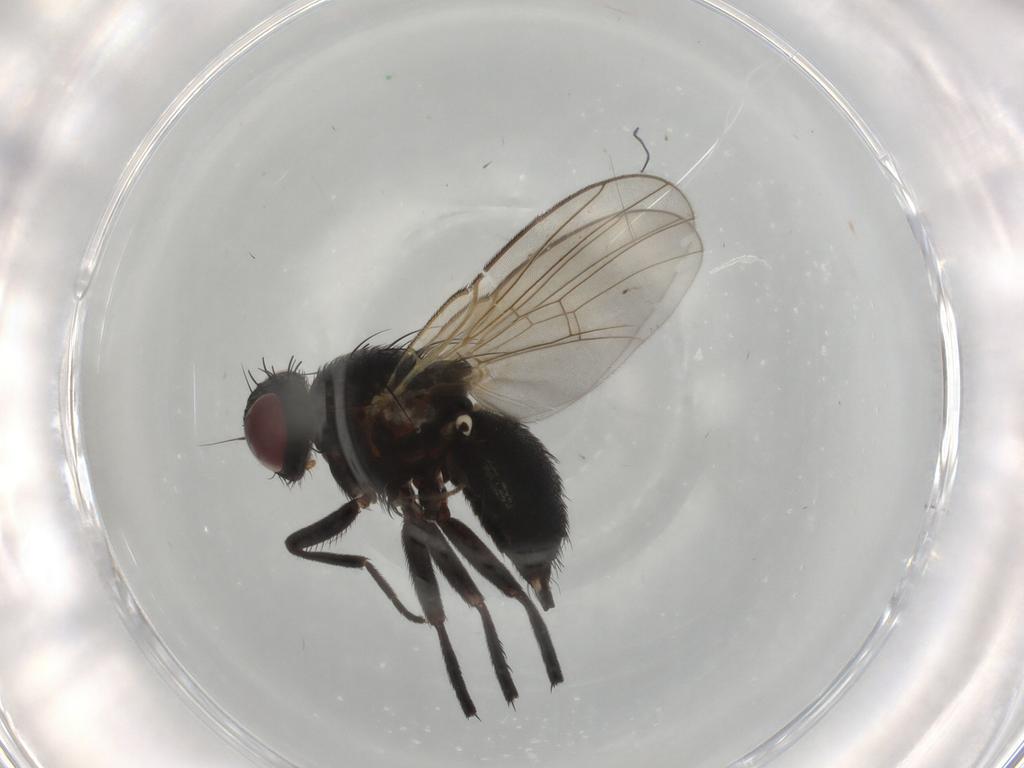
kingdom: Animalia
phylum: Arthropoda
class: Insecta
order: Diptera
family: Agromyzidae
